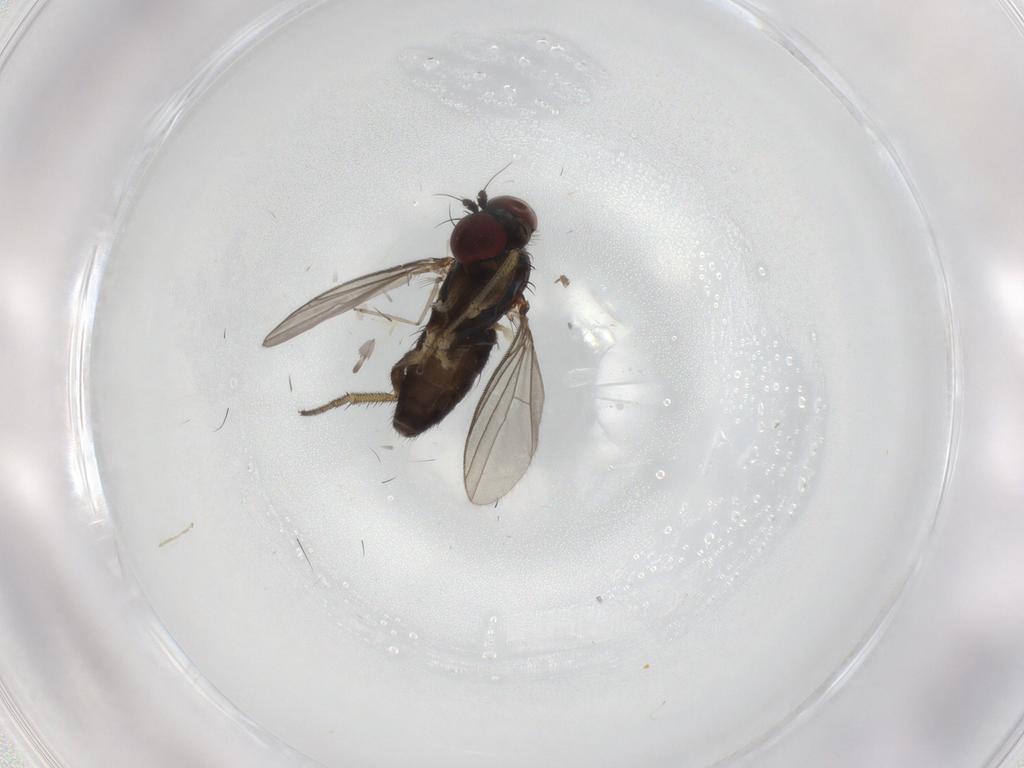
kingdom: Animalia
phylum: Arthropoda
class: Insecta
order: Diptera
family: Dolichopodidae
